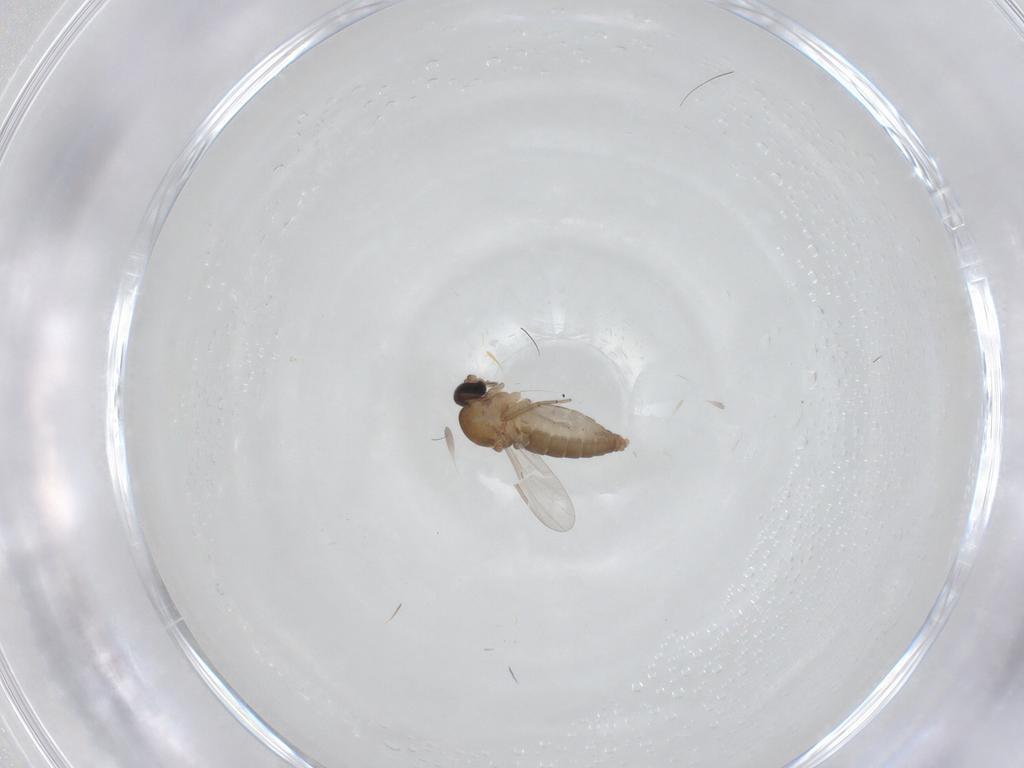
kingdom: Animalia
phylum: Arthropoda
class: Insecta
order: Diptera
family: Ceratopogonidae
